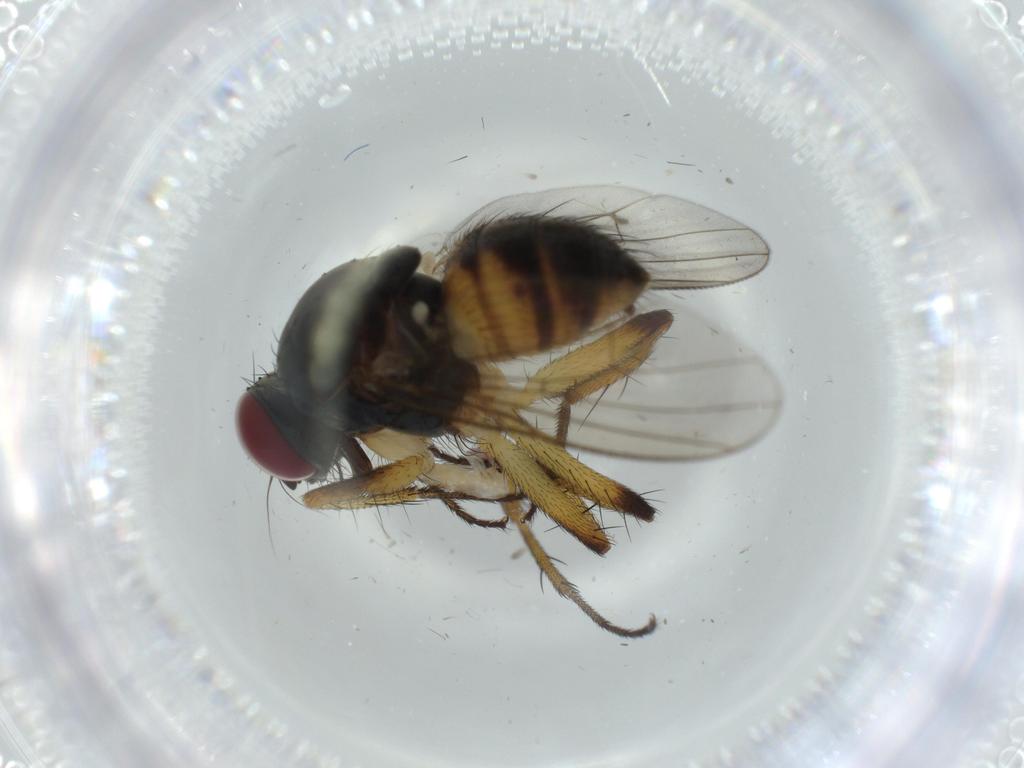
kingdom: Animalia
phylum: Arthropoda
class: Insecta
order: Diptera
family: Muscidae
